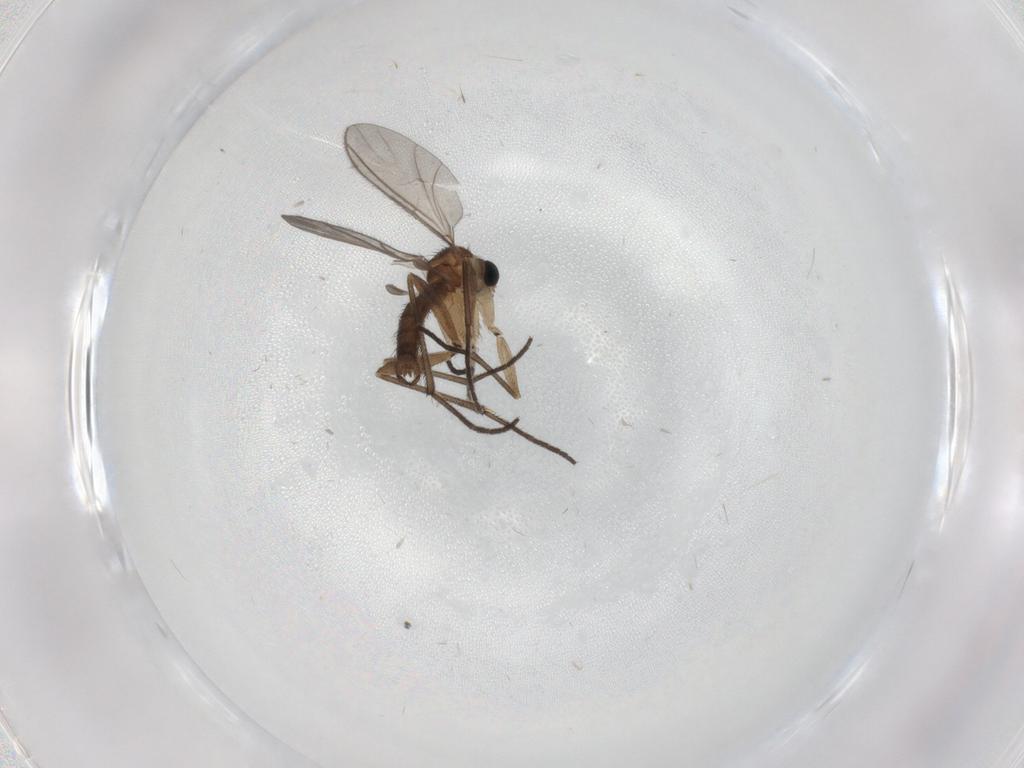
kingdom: Animalia
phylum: Arthropoda
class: Insecta
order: Diptera
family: Sciaridae
